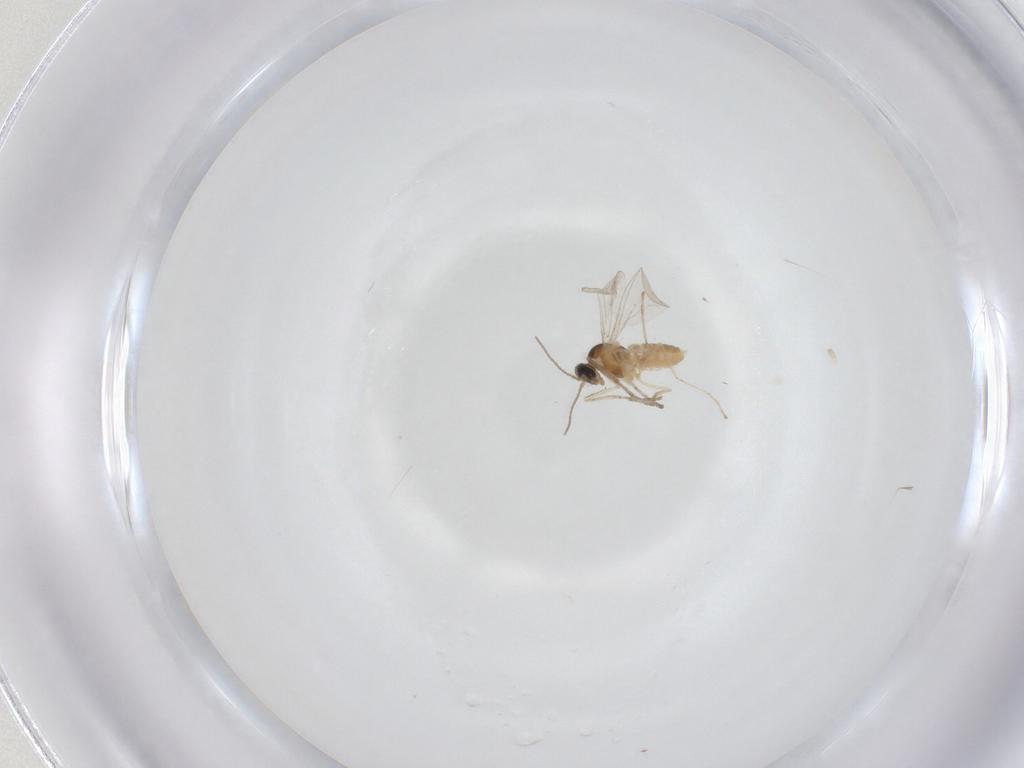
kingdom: Animalia
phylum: Arthropoda
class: Insecta
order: Diptera
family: Cecidomyiidae
